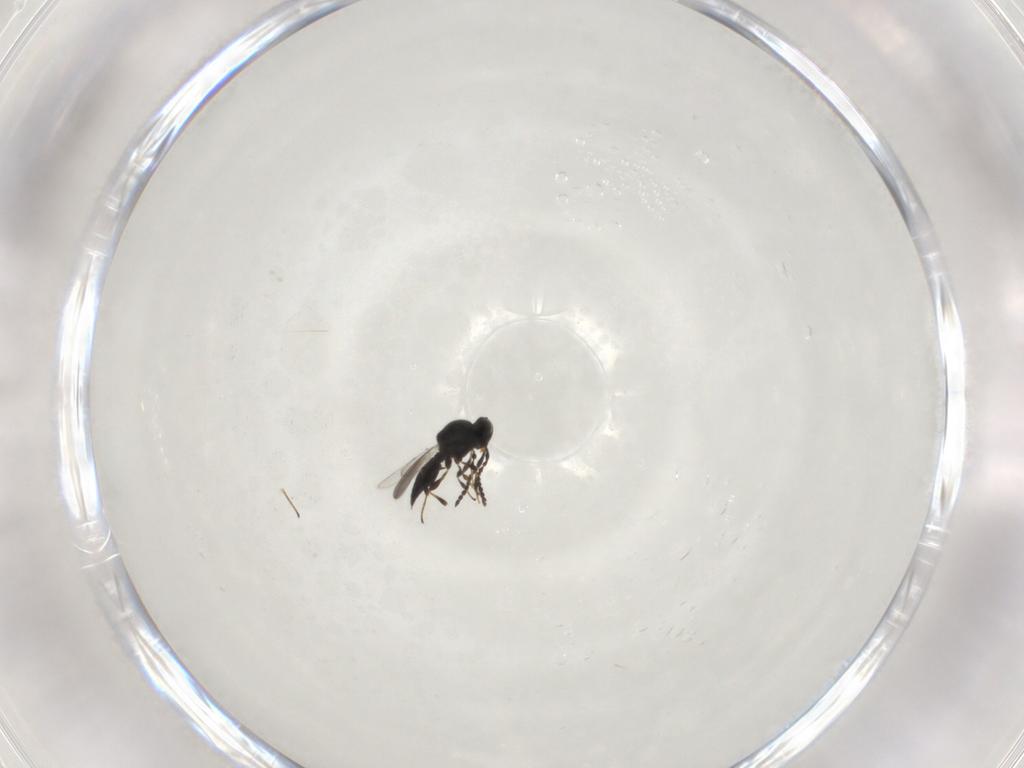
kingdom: Animalia
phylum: Arthropoda
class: Insecta
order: Hymenoptera
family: Platygastridae
